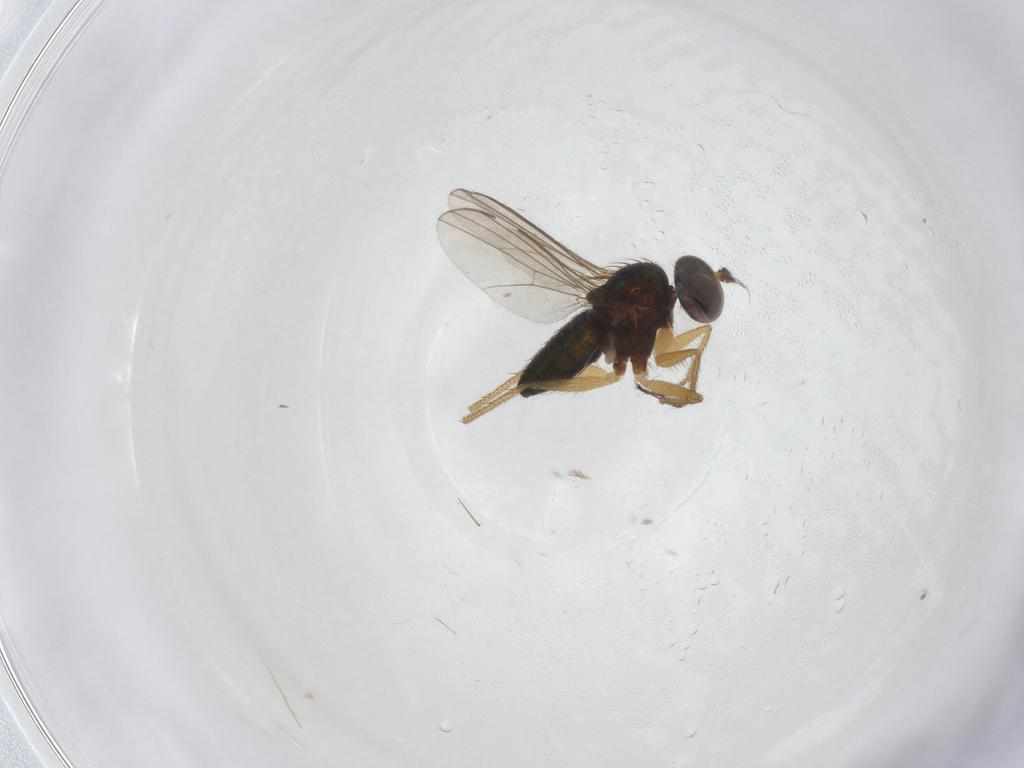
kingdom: Animalia
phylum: Arthropoda
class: Insecta
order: Diptera
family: Dolichopodidae
